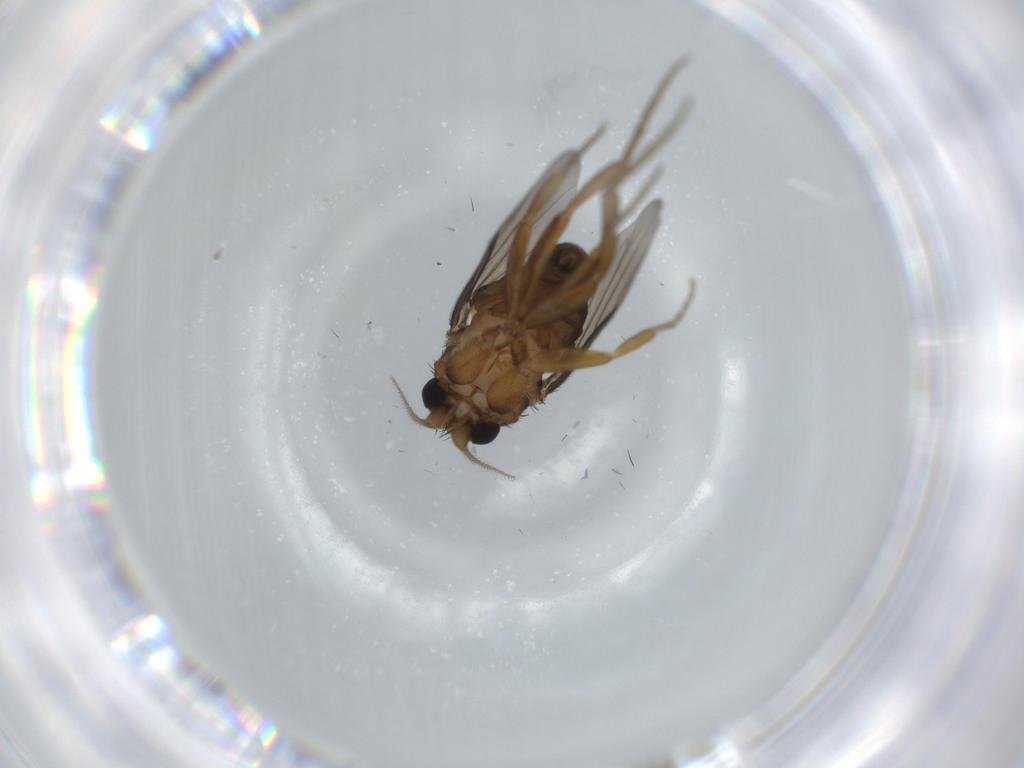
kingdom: Animalia
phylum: Arthropoda
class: Insecta
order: Diptera
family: Phoridae
